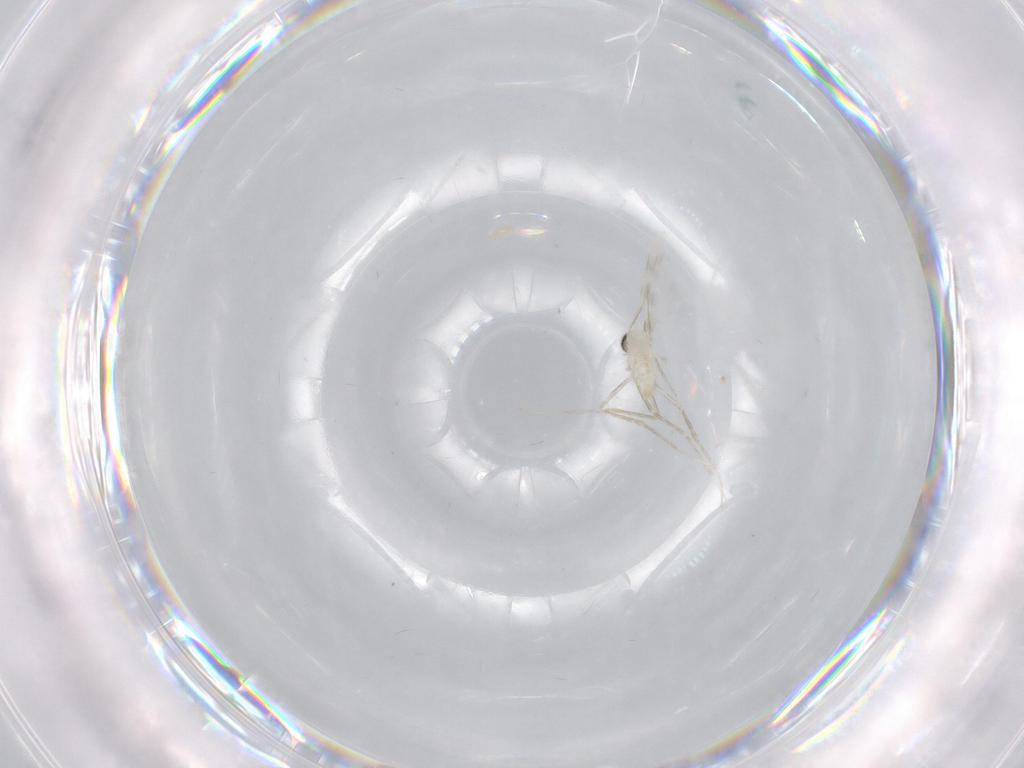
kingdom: Animalia
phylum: Arthropoda
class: Insecta
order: Diptera
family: Cecidomyiidae
